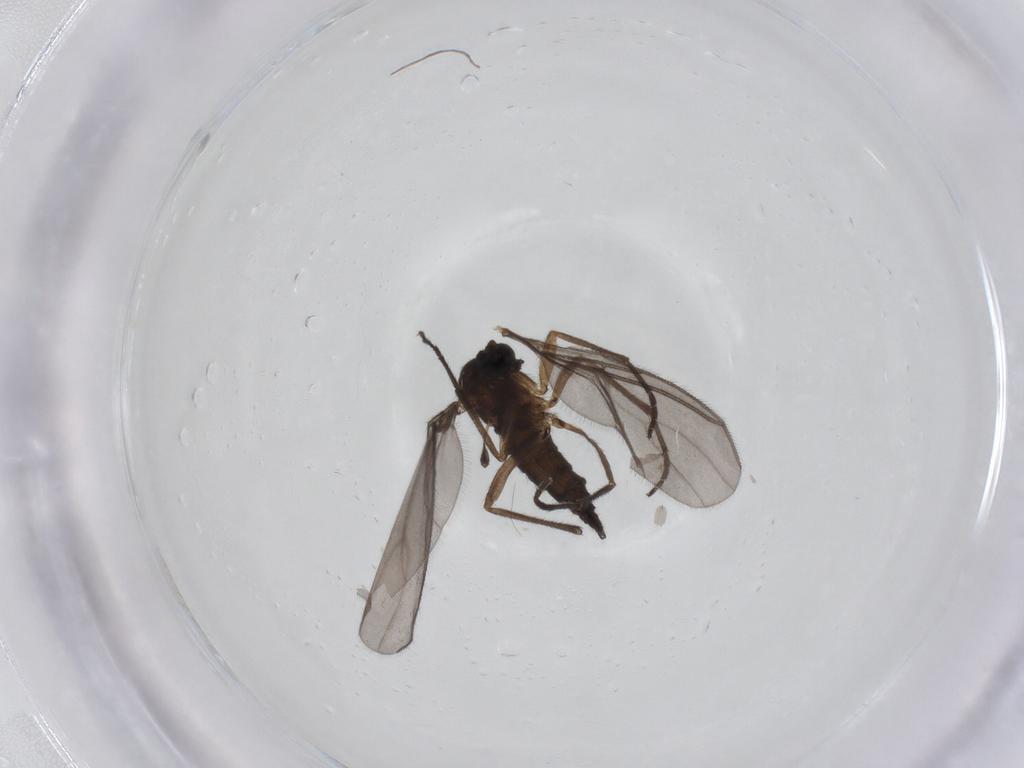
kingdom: Animalia
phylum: Arthropoda
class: Insecta
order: Diptera
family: Sciaridae
